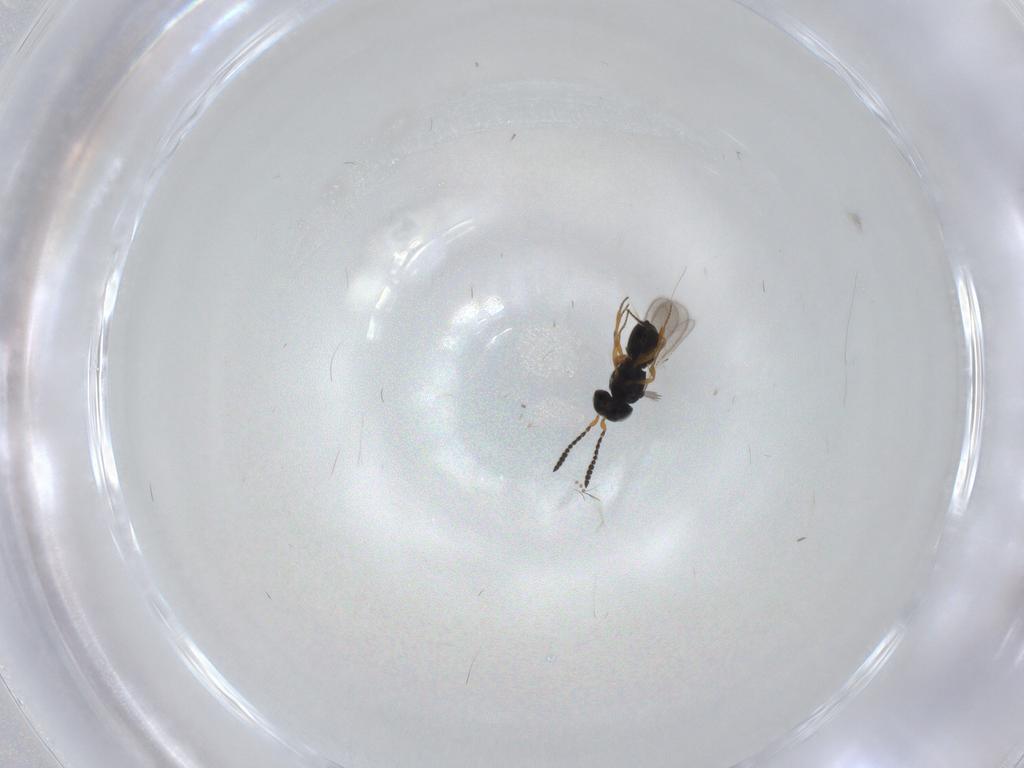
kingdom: Animalia
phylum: Arthropoda
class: Insecta
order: Hymenoptera
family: Scelionidae
